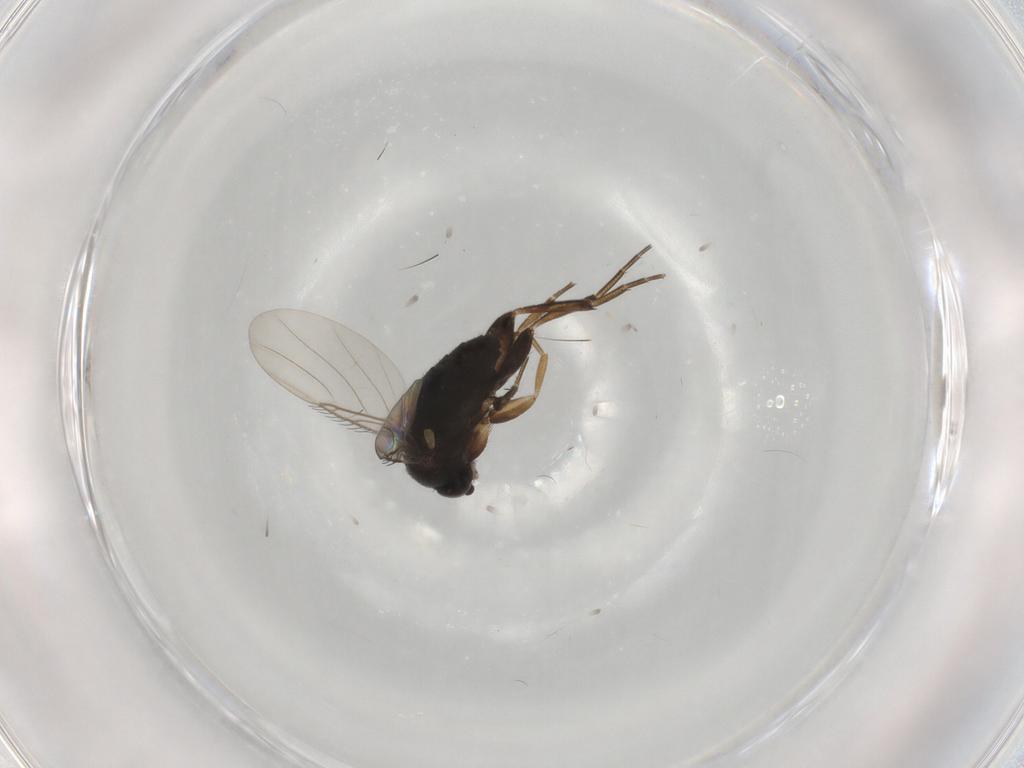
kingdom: Animalia
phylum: Arthropoda
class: Insecta
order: Diptera
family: Phoridae
